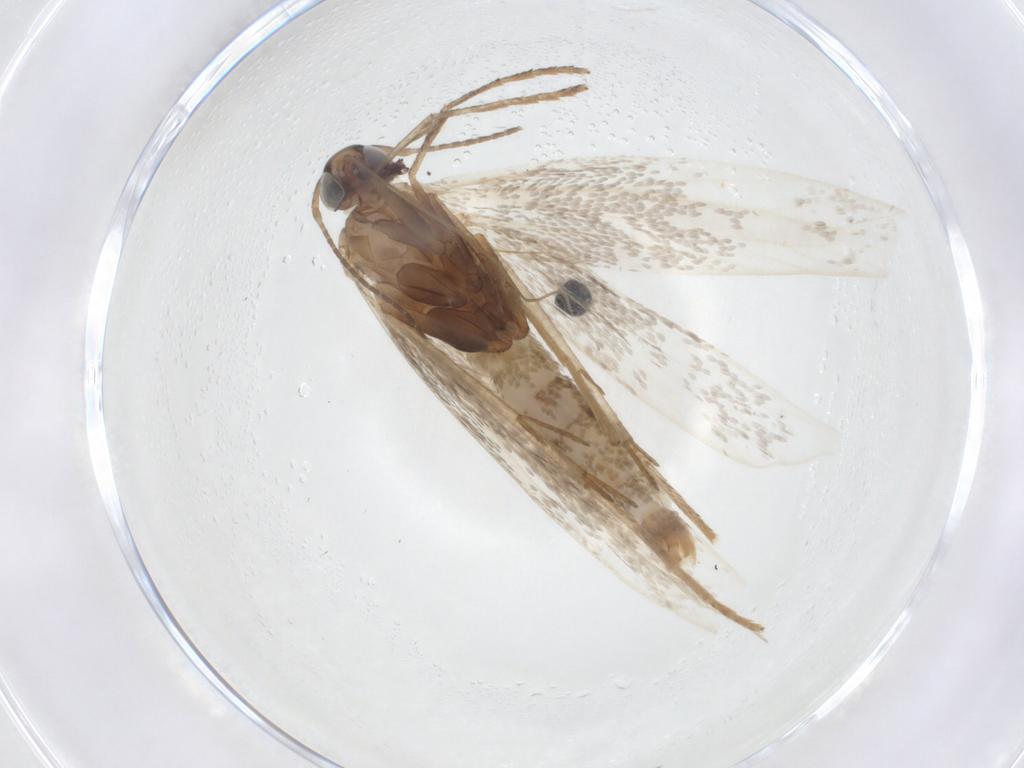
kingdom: Animalia
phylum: Arthropoda
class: Insecta
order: Lepidoptera
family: Gelechiidae
